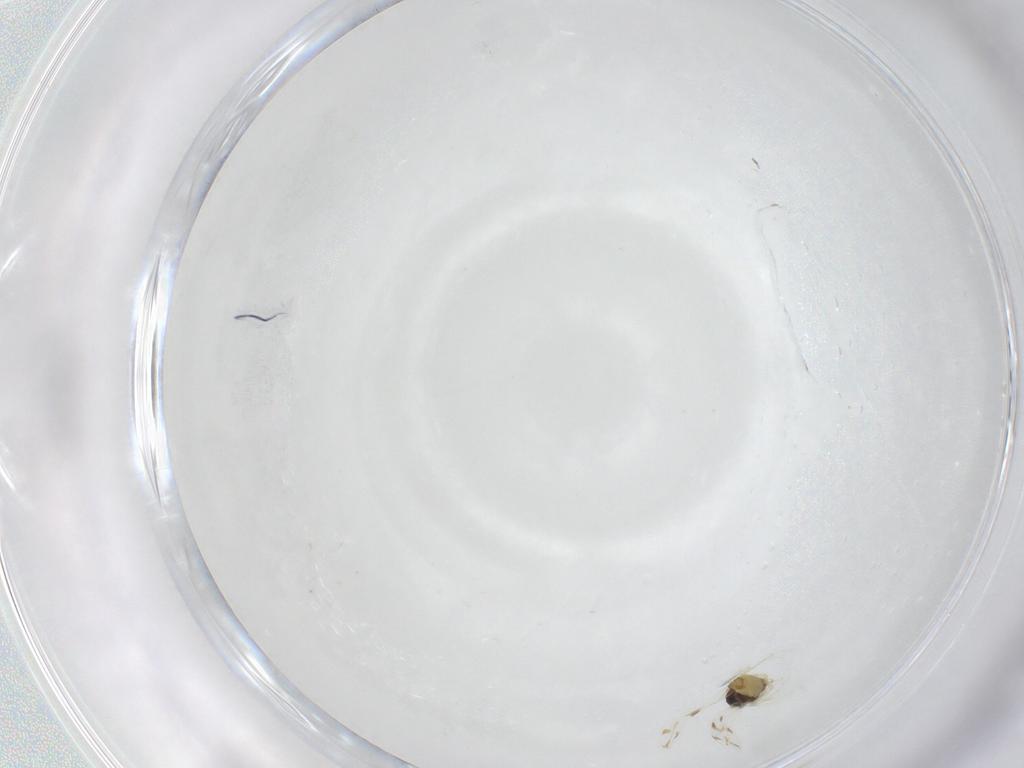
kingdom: Animalia
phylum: Arthropoda
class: Insecta
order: Hemiptera
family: Aleyrodidae
